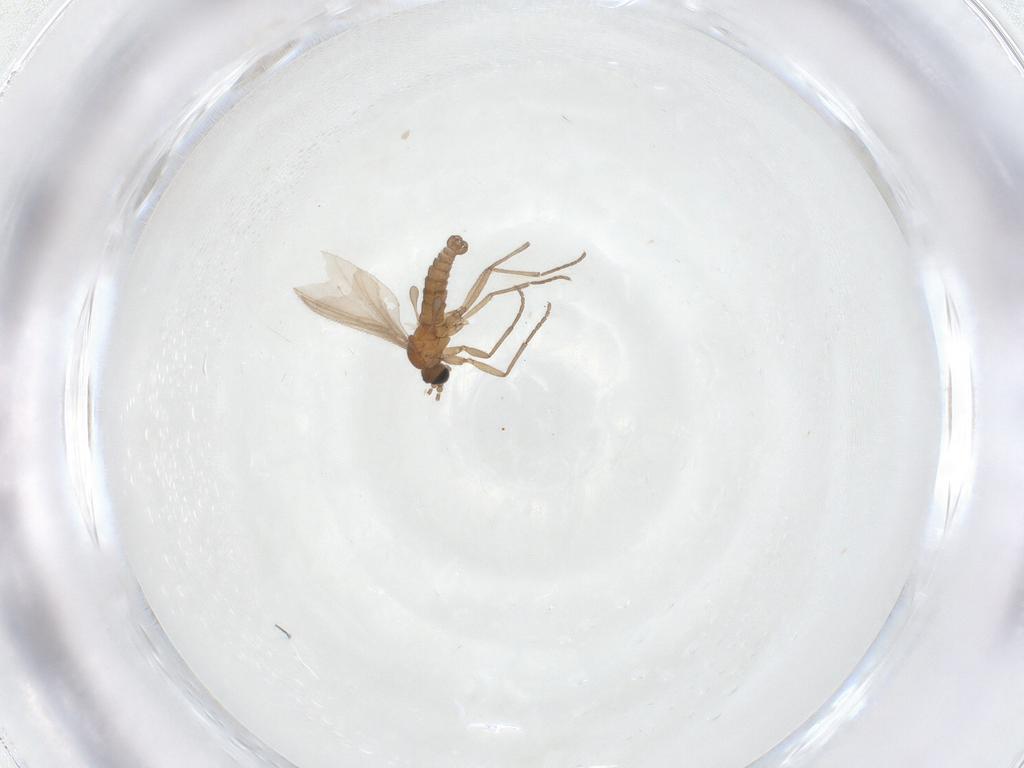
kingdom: Animalia
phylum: Arthropoda
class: Insecta
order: Diptera
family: Sciaridae
